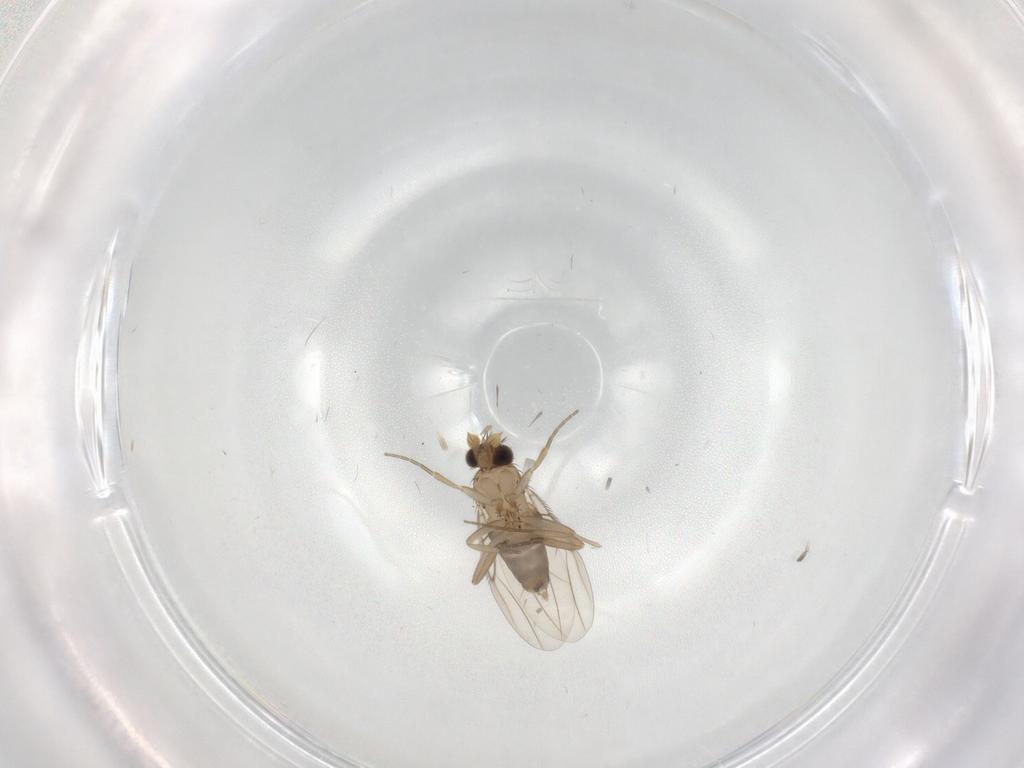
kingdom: Animalia
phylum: Arthropoda
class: Insecta
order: Diptera
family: Phoridae
